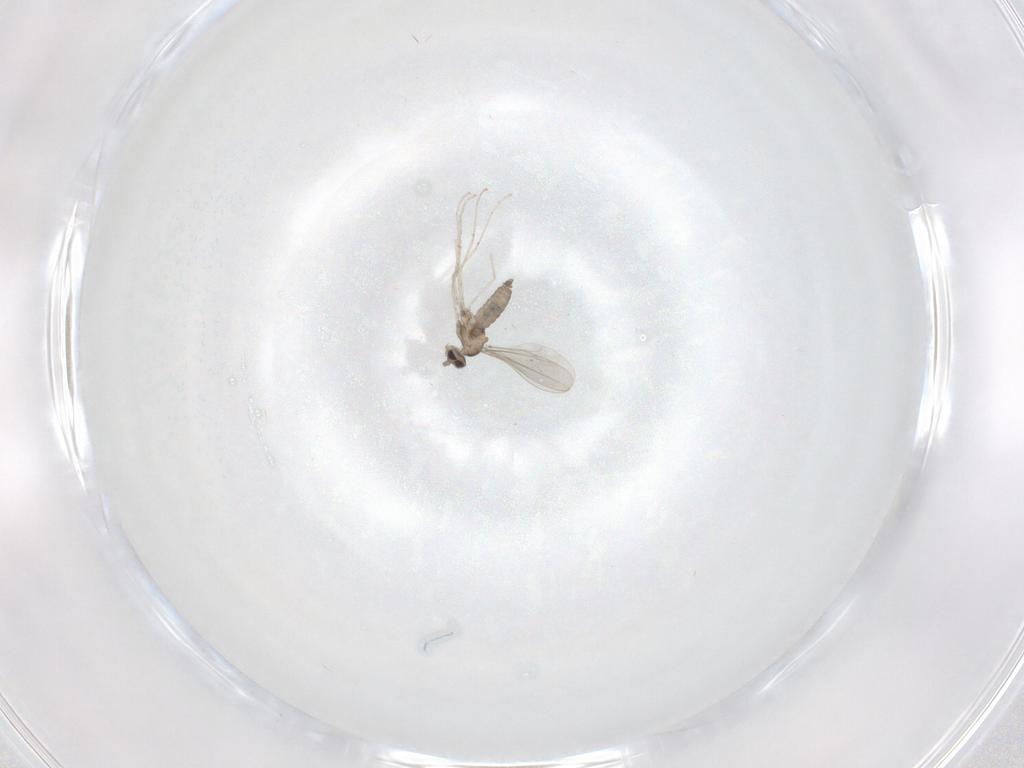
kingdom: Animalia
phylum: Arthropoda
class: Insecta
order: Diptera
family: Cecidomyiidae
